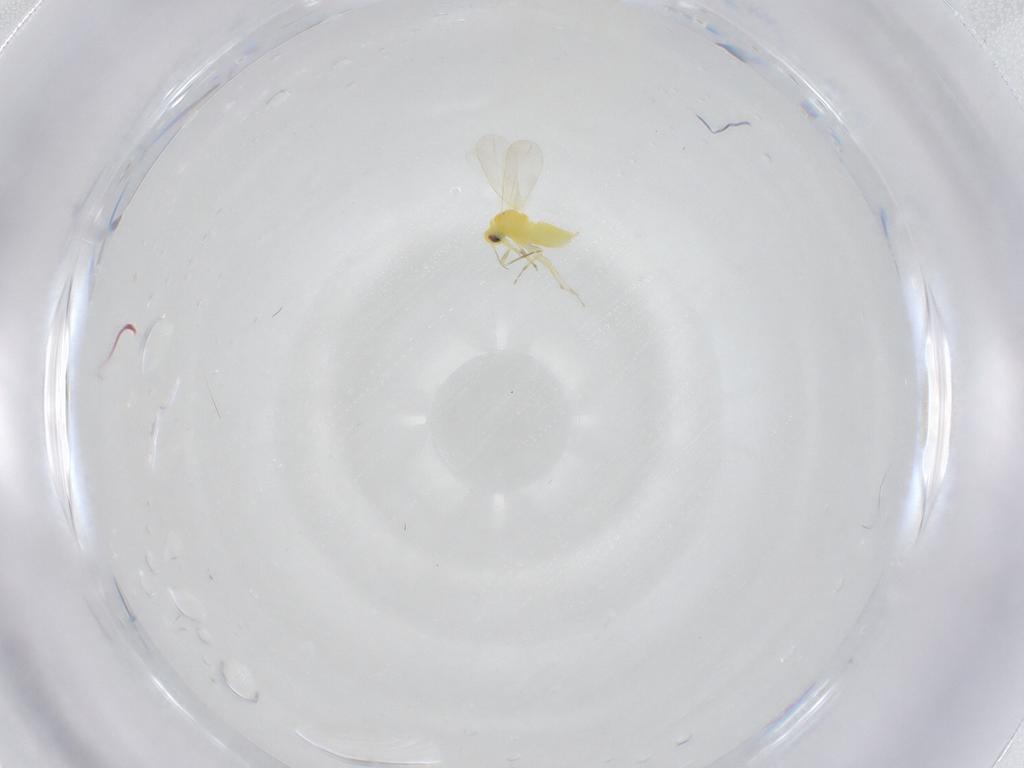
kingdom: Animalia
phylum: Arthropoda
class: Insecta
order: Hemiptera
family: Aleyrodidae
